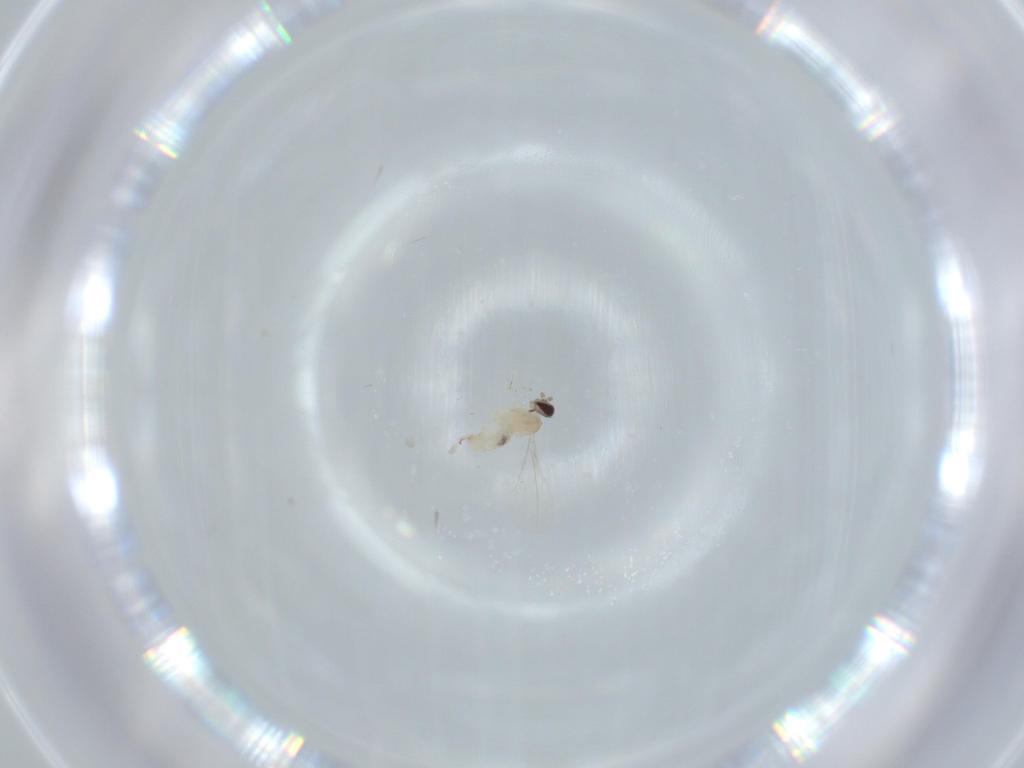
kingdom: Animalia
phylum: Arthropoda
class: Insecta
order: Diptera
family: Cecidomyiidae
